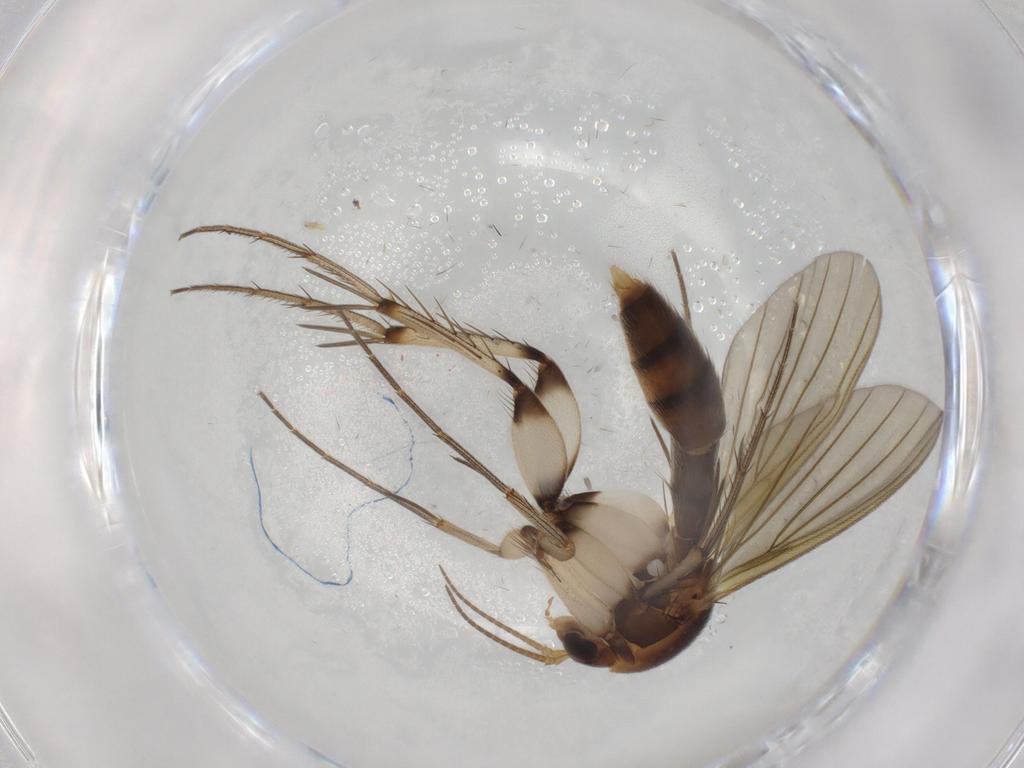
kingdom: Animalia
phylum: Arthropoda
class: Insecta
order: Diptera
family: Mycetophilidae
